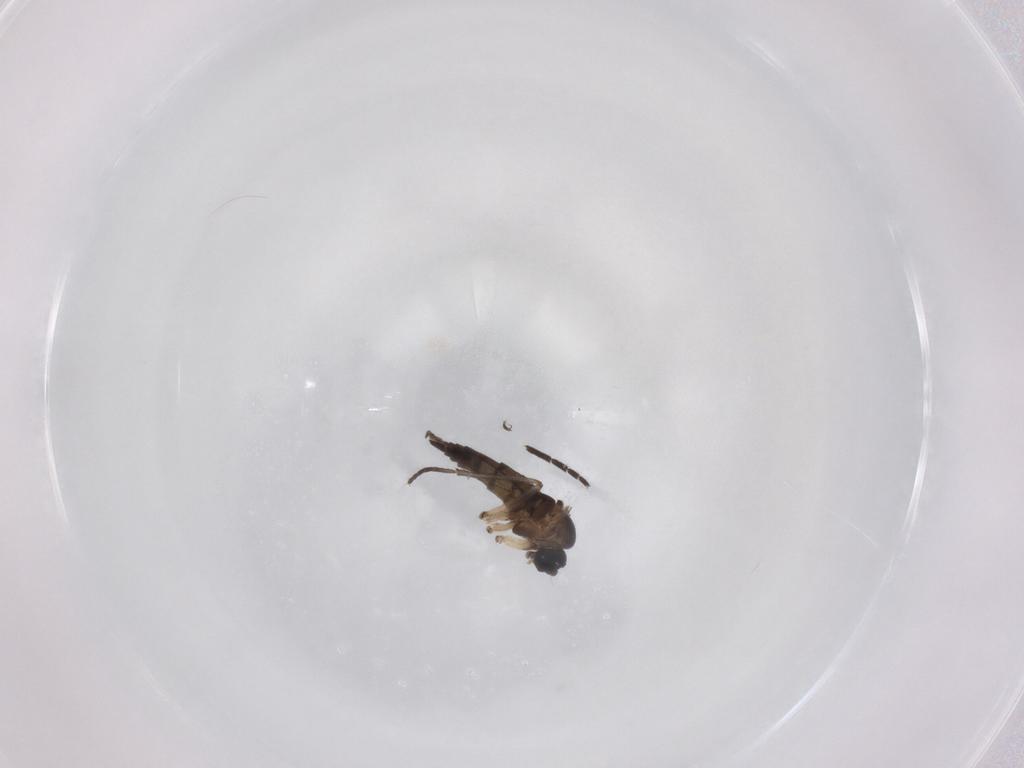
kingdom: Animalia
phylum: Arthropoda
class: Insecta
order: Diptera
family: Sciaridae
